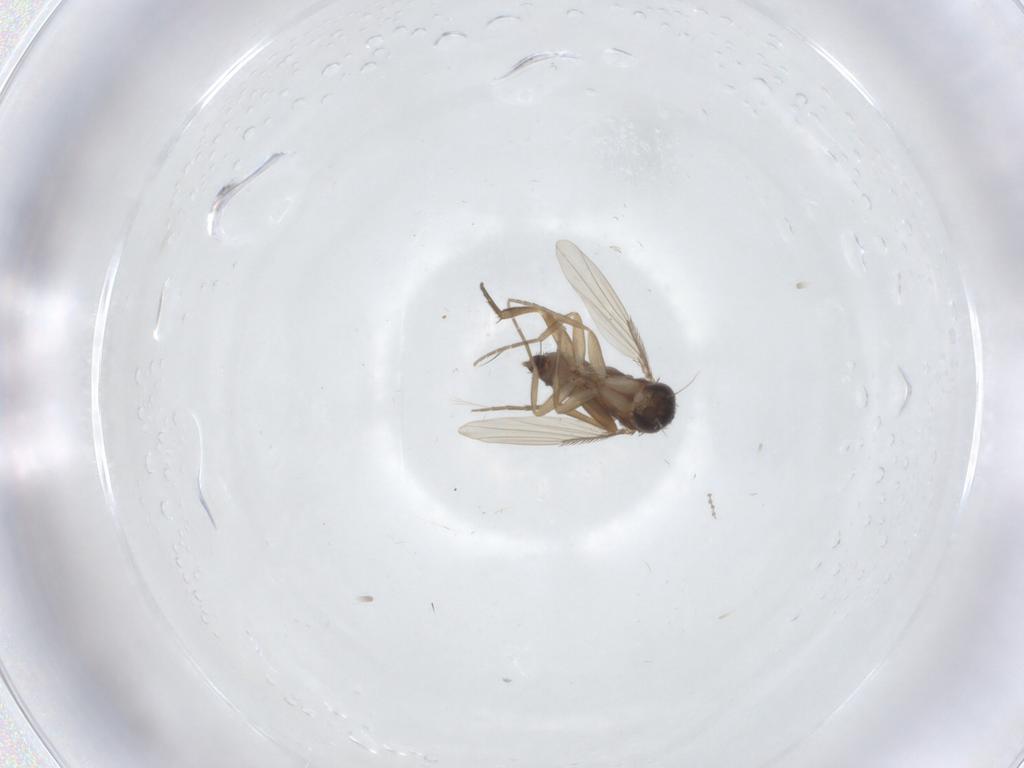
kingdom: Animalia
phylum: Arthropoda
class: Insecta
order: Diptera
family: Phoridae
